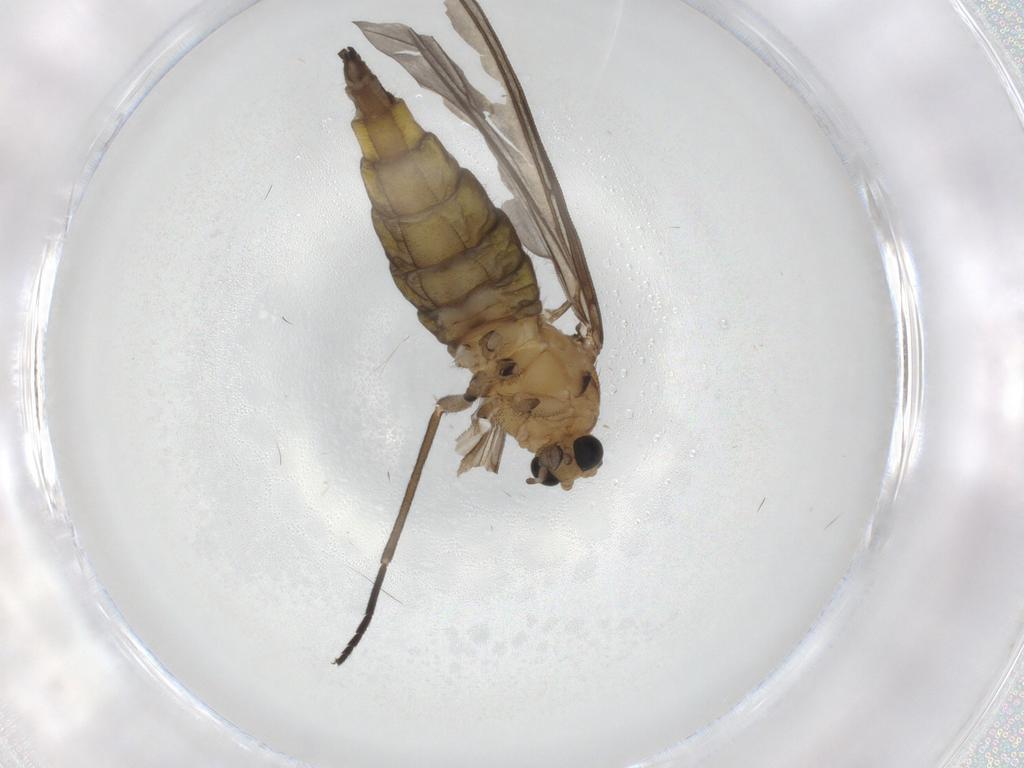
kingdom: Animalia
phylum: Arthropoda
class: Insecta
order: Diptera
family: Sciaridae
